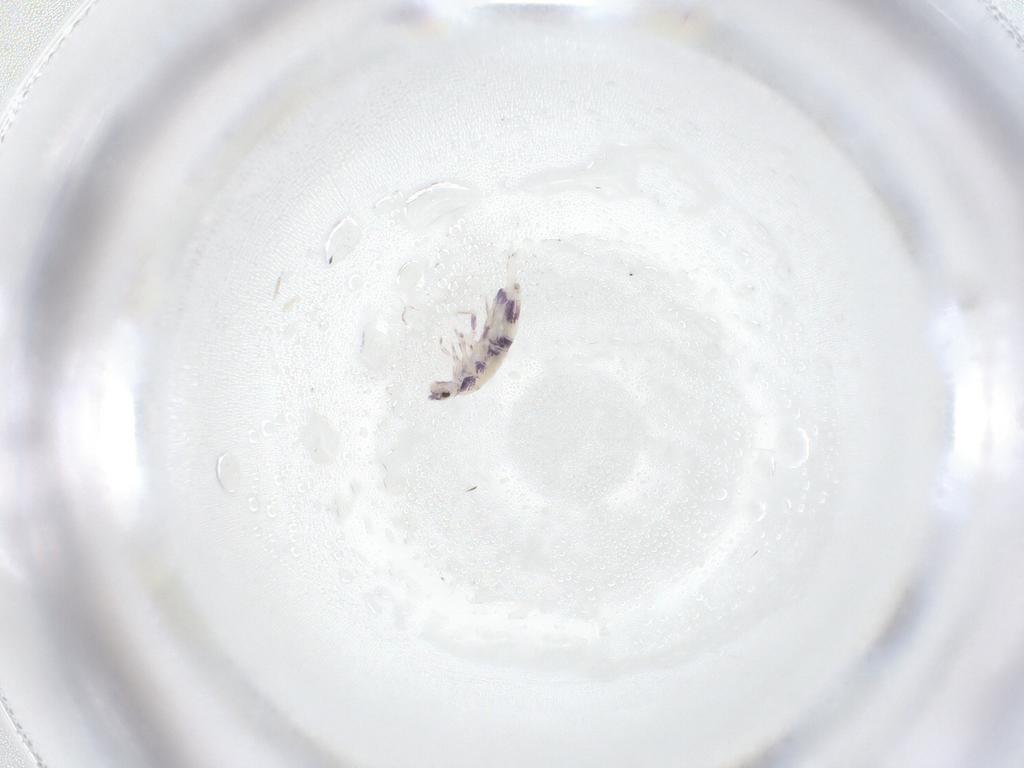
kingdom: Animalia
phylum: Arthropoda
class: Collembola
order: Entomobryomorpha
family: Entomobryidae
